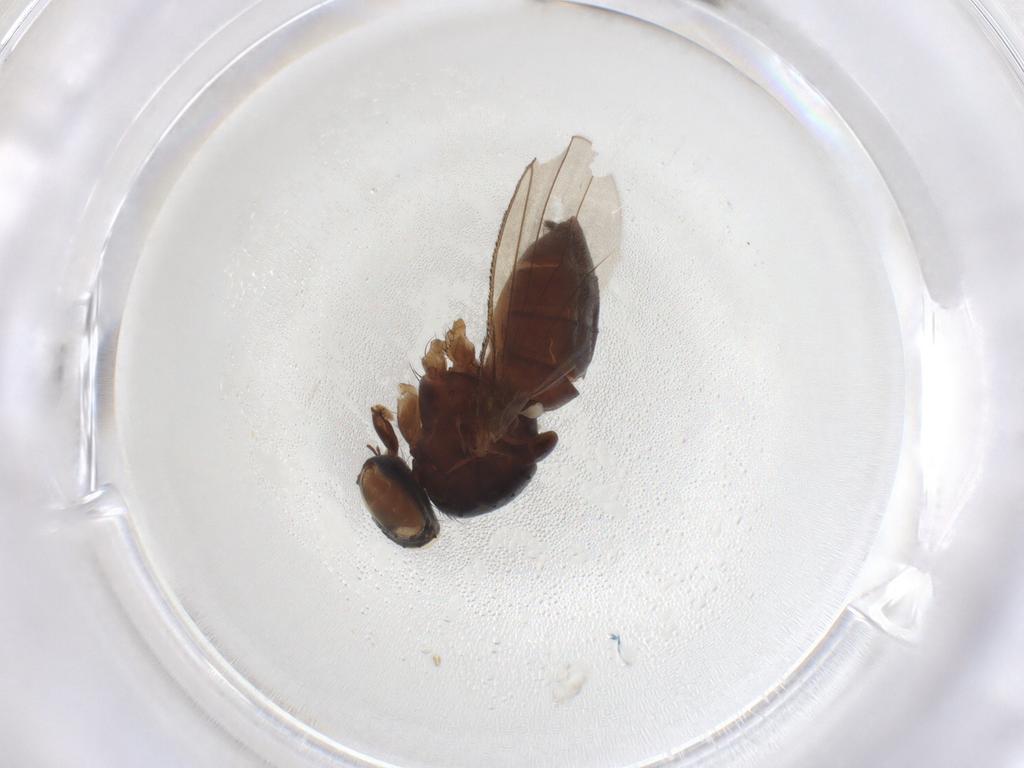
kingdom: Animalia
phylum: Arthropoda
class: Insecta
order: Diptera
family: Muscidae
